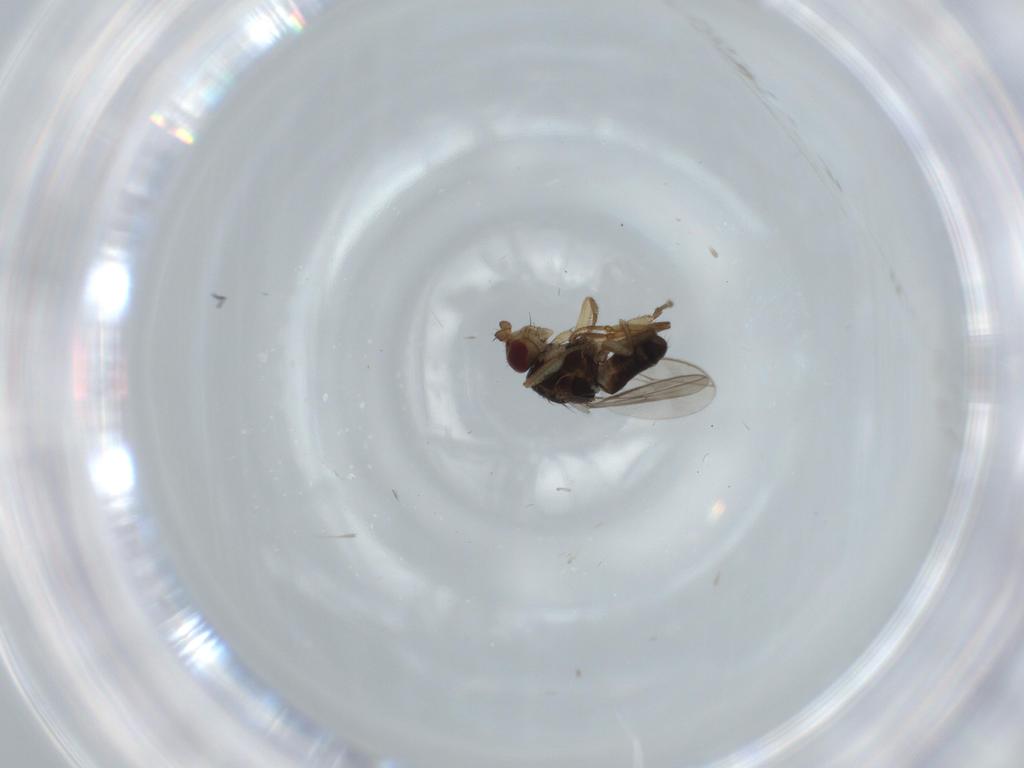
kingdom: Animalia
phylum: Arthropoda
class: Insecta
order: Diptera
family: Sphaeroceridae
